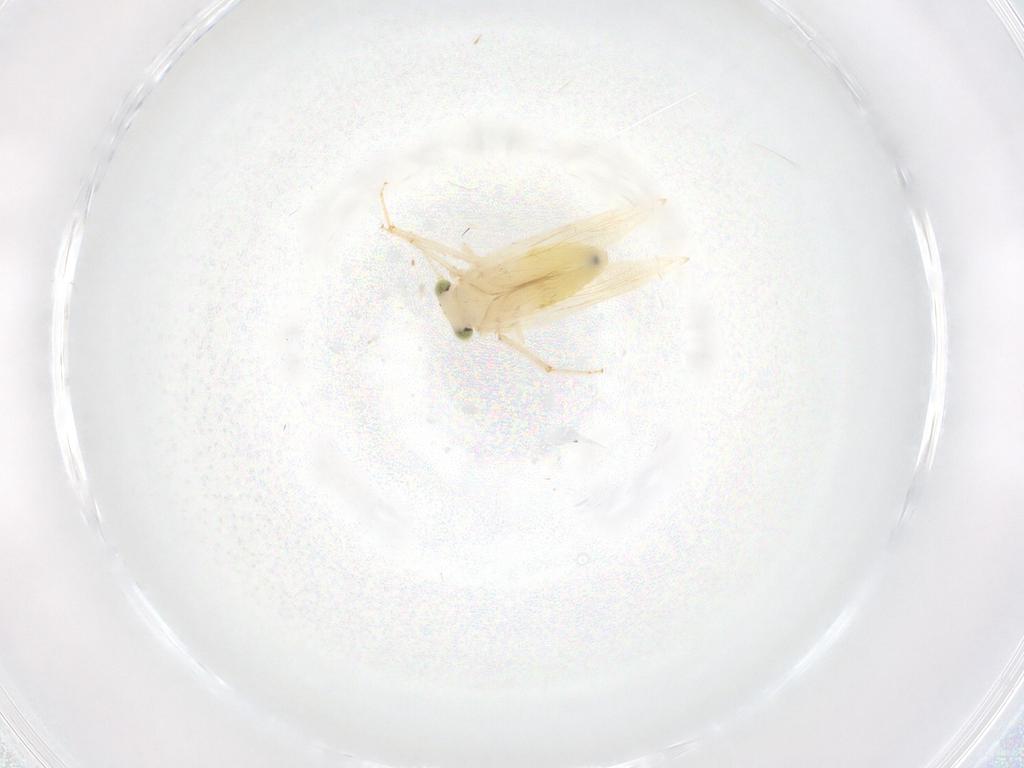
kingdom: Animalia
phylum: Arthropoda
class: Insecta
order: Psocodea
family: Lepidopsocidae
